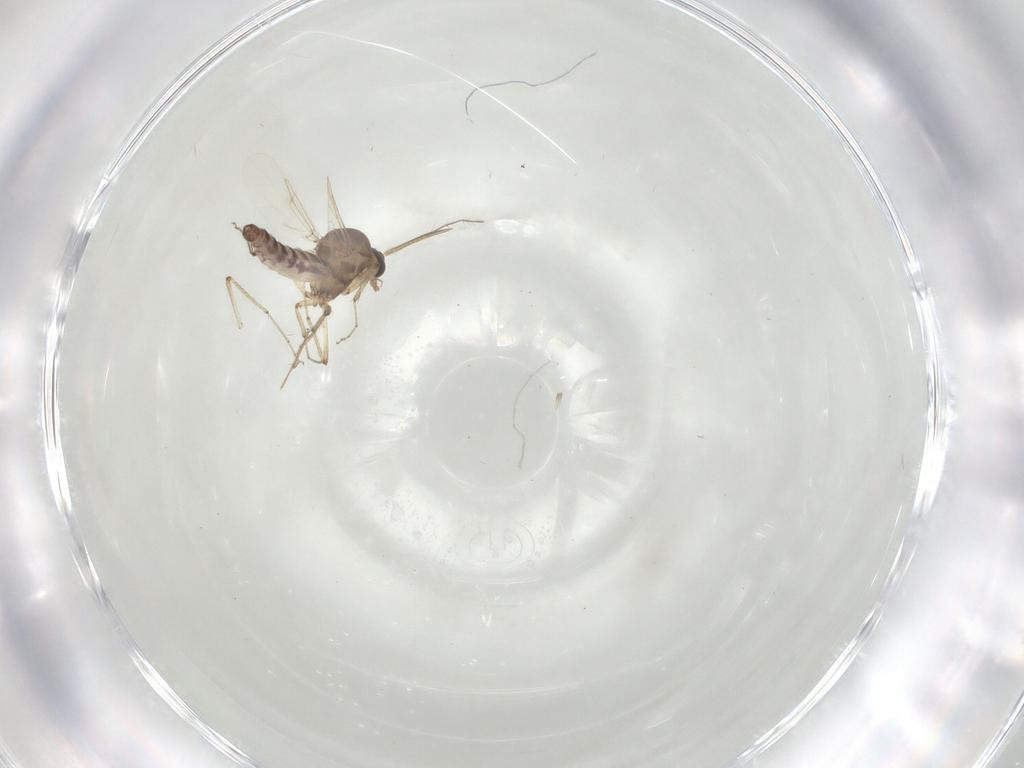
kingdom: Animalia
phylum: Arthropoda
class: Insecta
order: Diptera
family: Ceratopogonidae
